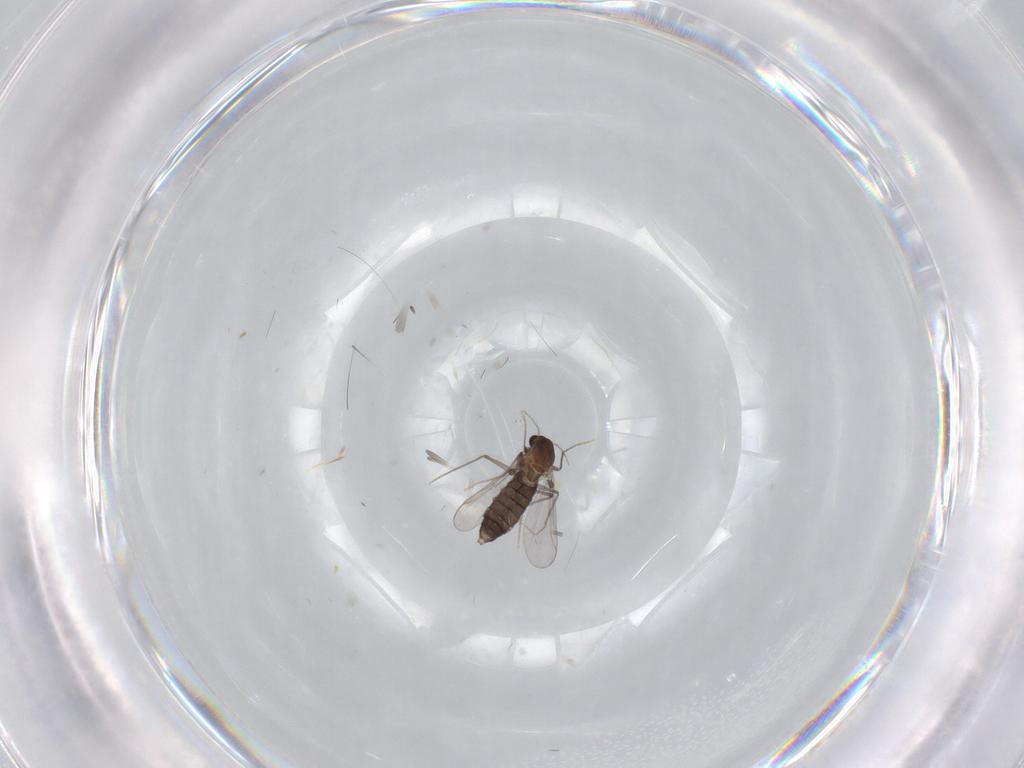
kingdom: Animalia
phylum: Arthropoda
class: Insecta
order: Diptera
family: Chironomidae
